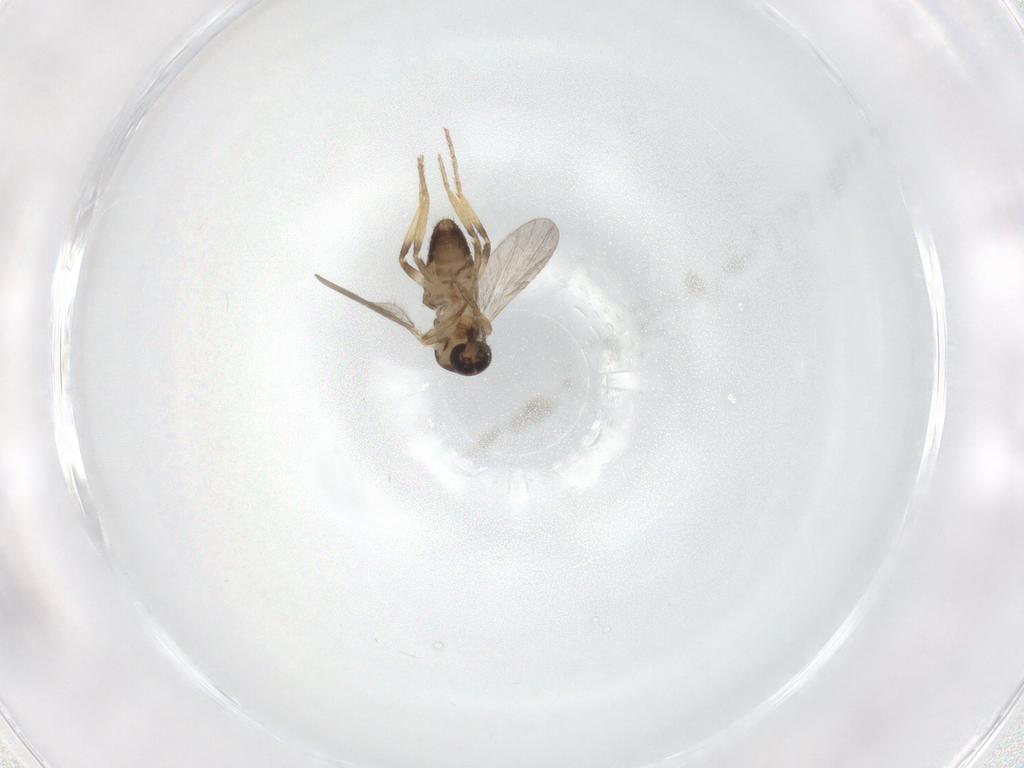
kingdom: Animalia
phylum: Arthropoda
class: Insecta
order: Diptera
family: Ceratopogonidae
